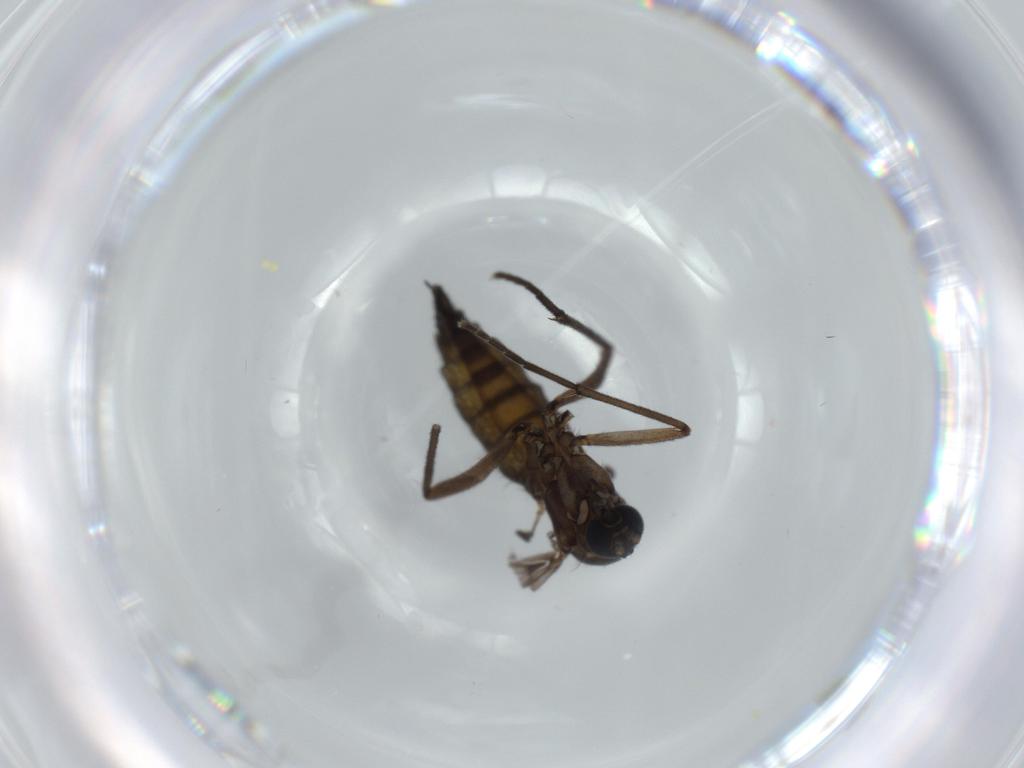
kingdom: Animalia
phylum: Arthropoda
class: Insecta
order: Diptera
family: Sciaridae
